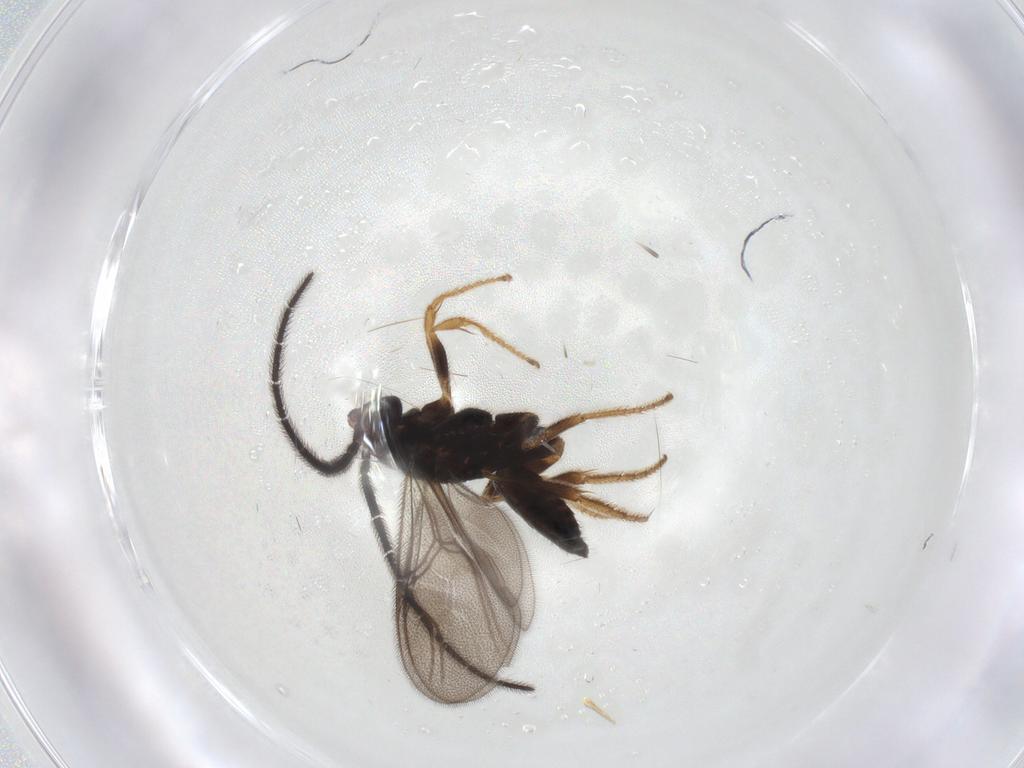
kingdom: Animalia
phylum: Arthropoda
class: Insecta
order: Hymenoptera
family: Dryinidae
